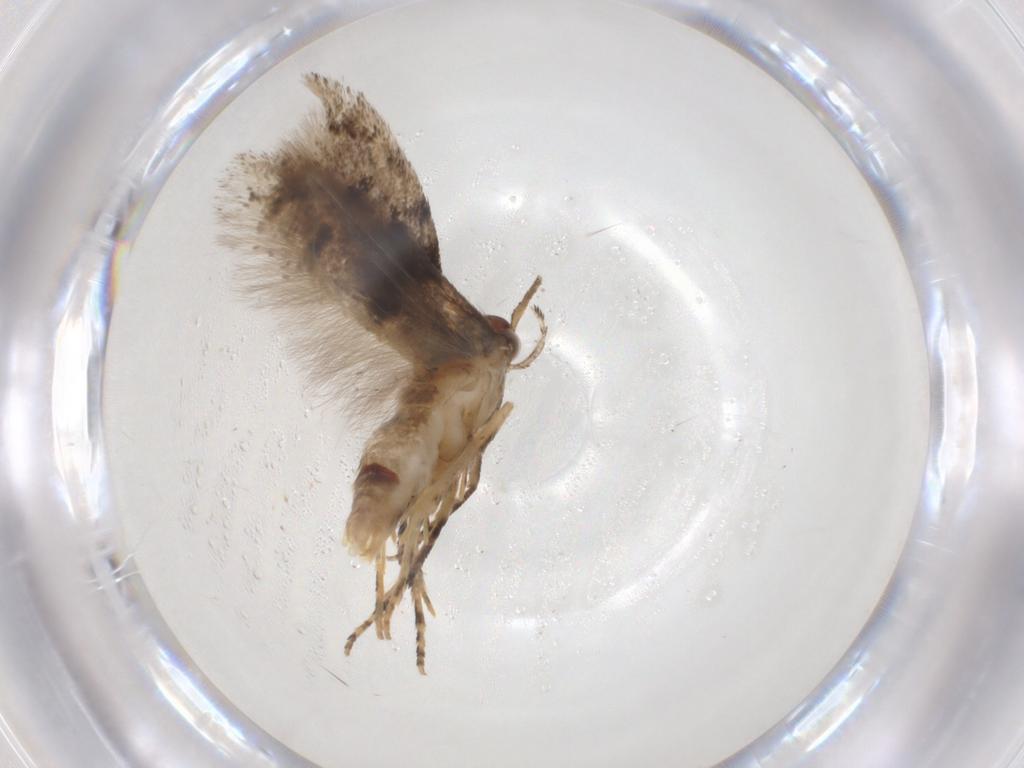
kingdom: Animalia
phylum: Arthropoda
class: Insecta
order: Lepidoptera
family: Gelechiidae
